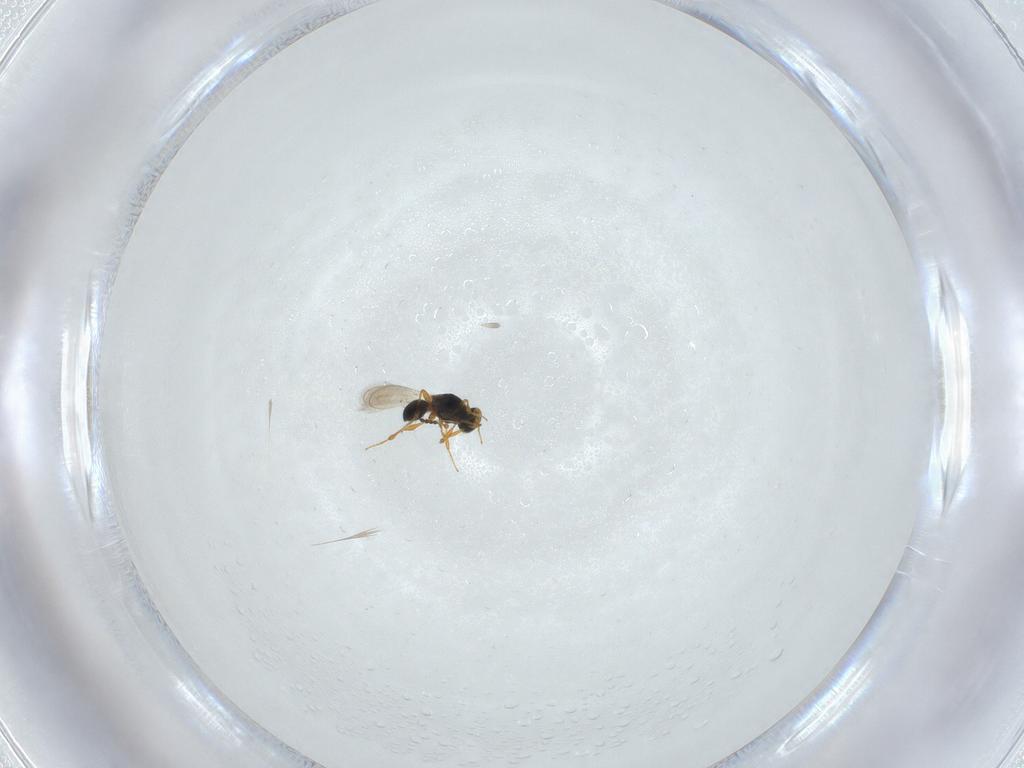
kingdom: Animalia
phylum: Arthropoda
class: Insecta
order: Hymenoptera
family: Platygastridae
